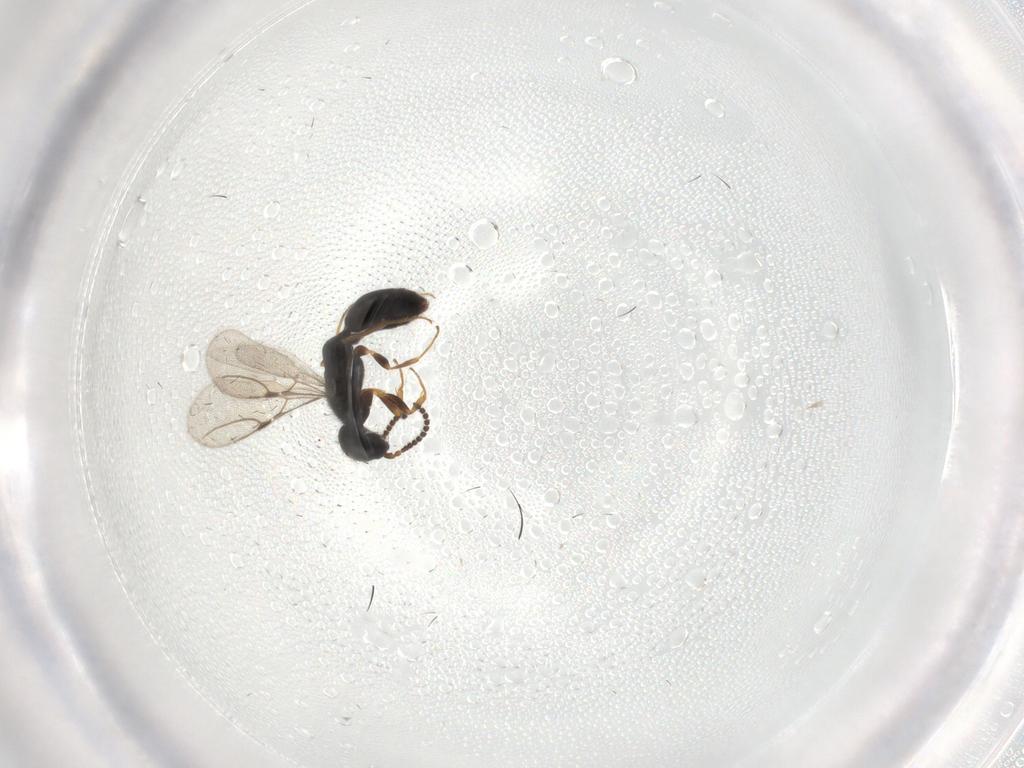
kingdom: Animalia
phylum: Arthropoda
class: Insecta
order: Hymenoptera
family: Bethylidae
